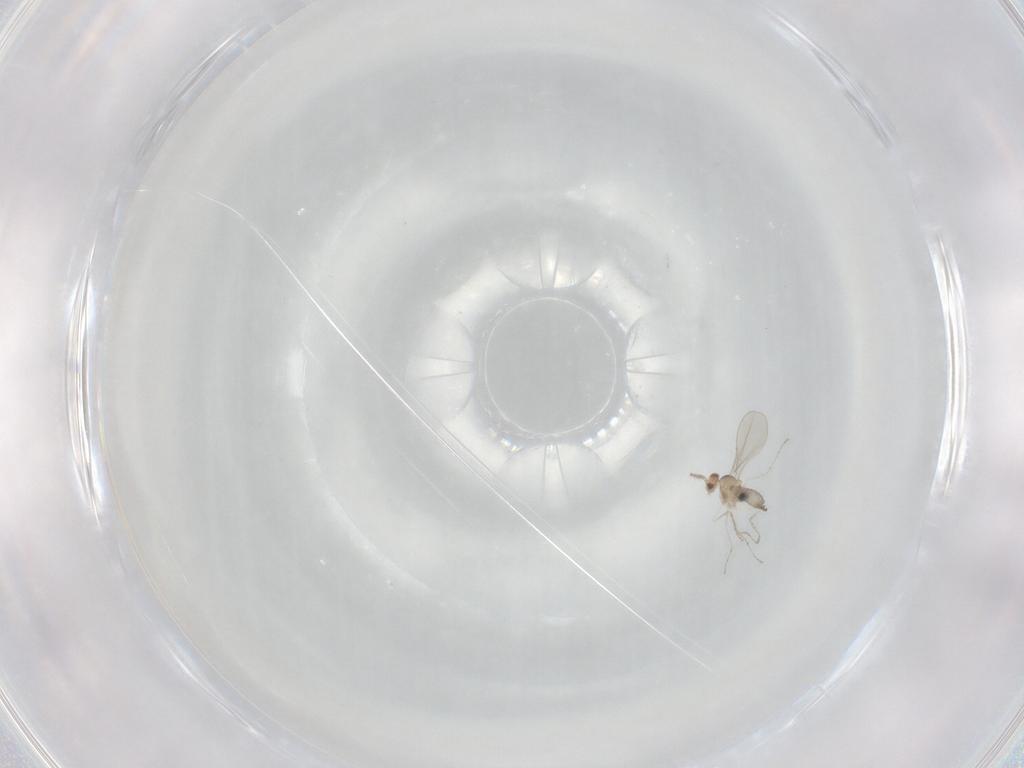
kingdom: Animalia
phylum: Arthropoda
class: Insecta
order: Diptera
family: Cecidomyiidae
